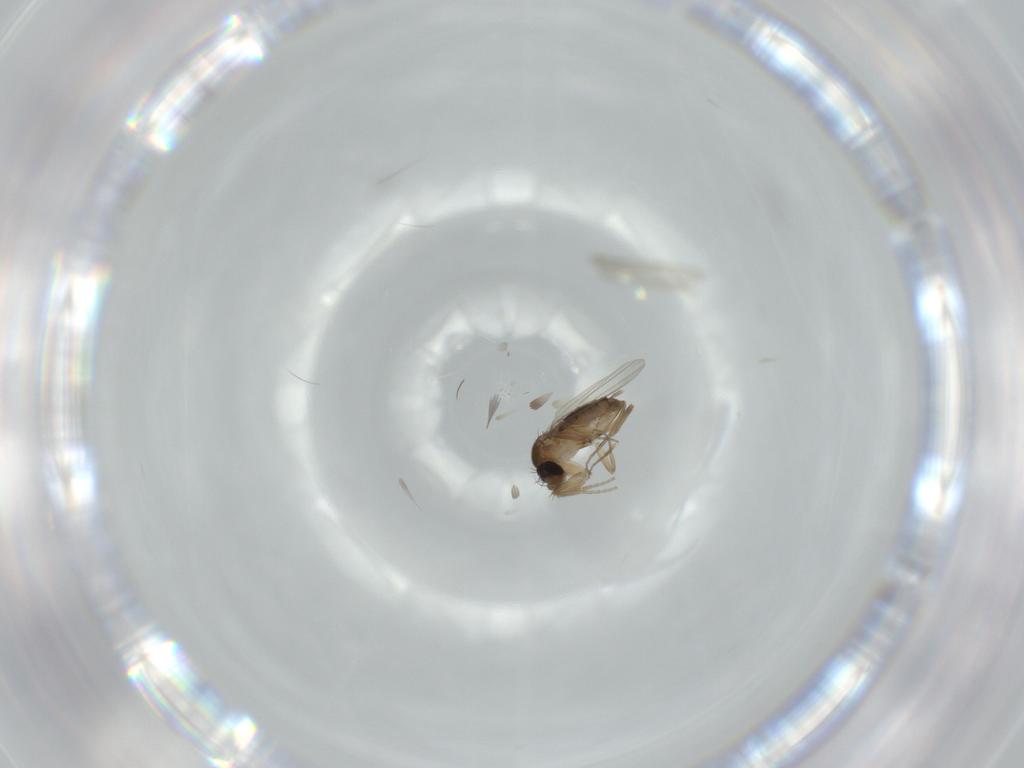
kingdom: Animalia
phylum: Arthropoda
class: Insecta
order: Diptera
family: Phoridae
